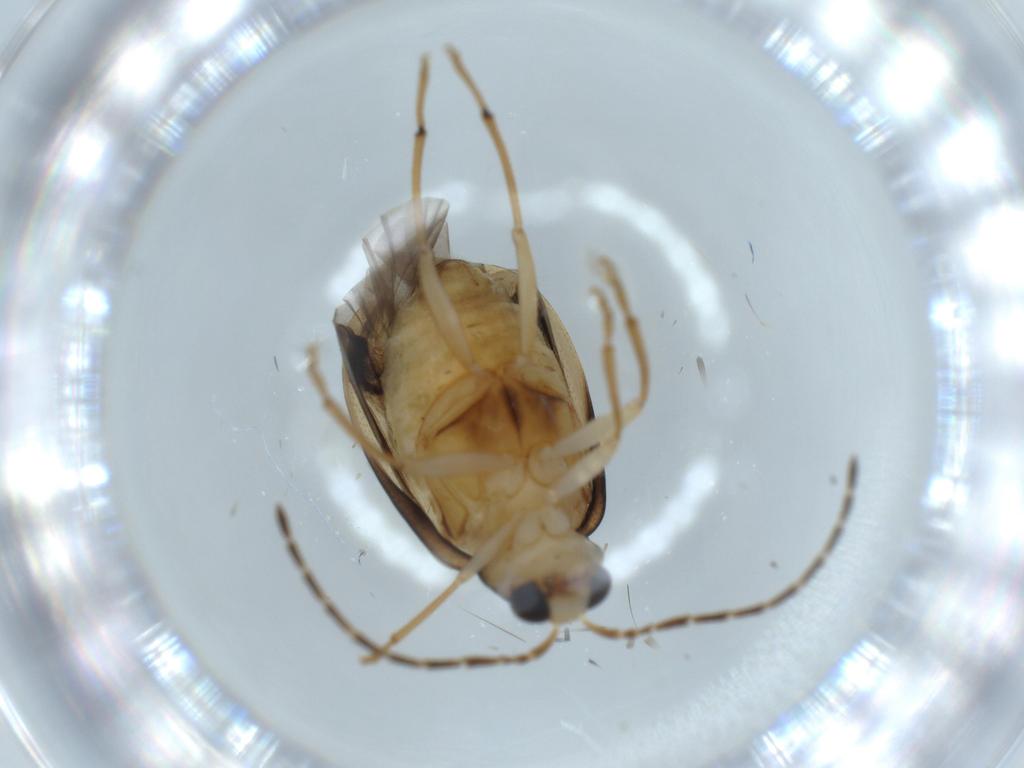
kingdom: Animalia
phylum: Arthropoda
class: Insecta
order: Coleoptera
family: Chrysomelidae
